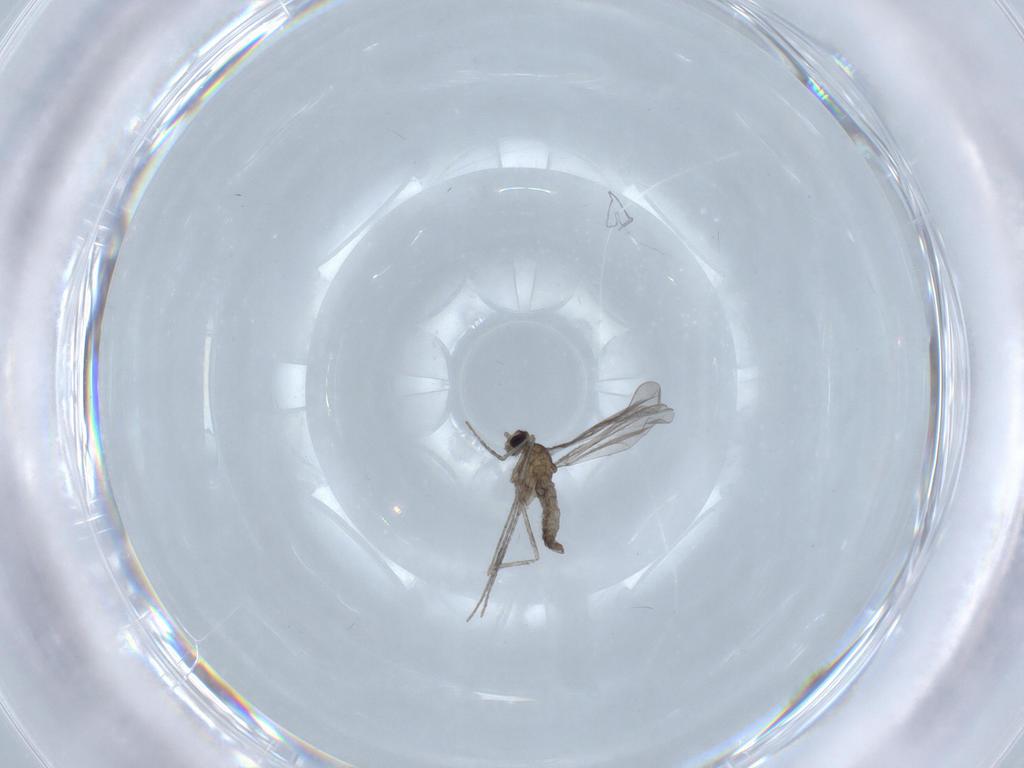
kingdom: Animalia
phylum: Arthropoda
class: Insecta
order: Diptera
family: Cecidomyiidae
